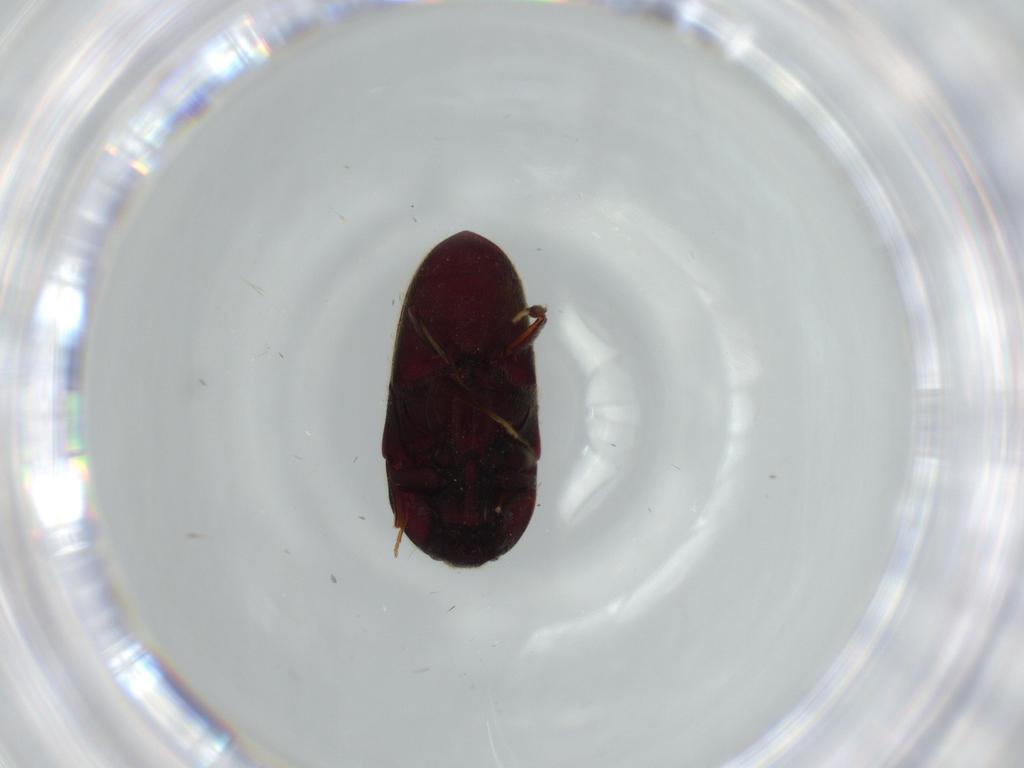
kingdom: Animalia
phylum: Arthropoda
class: Insecta
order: Coleoptera
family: Throscidae
